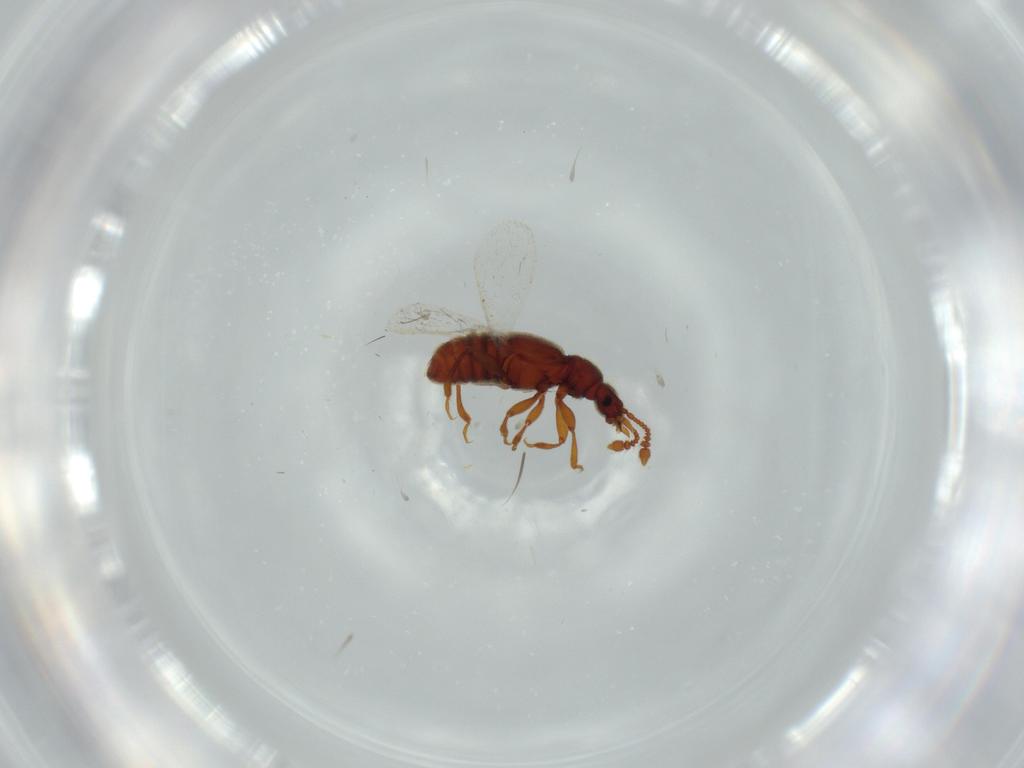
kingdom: Animalia
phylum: Arthropoda
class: Insecta
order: Coleoptera
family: Staphylinidae
